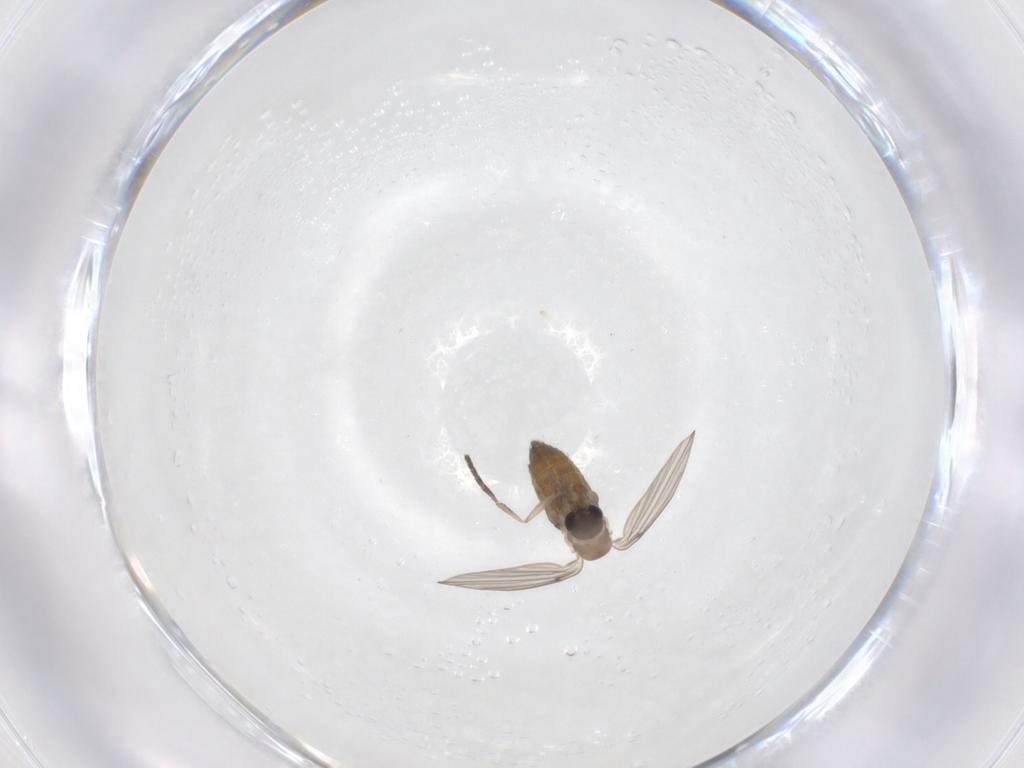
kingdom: Animalia
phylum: Arthropoda
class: Insecta
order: Diptera
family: Psychodidae
